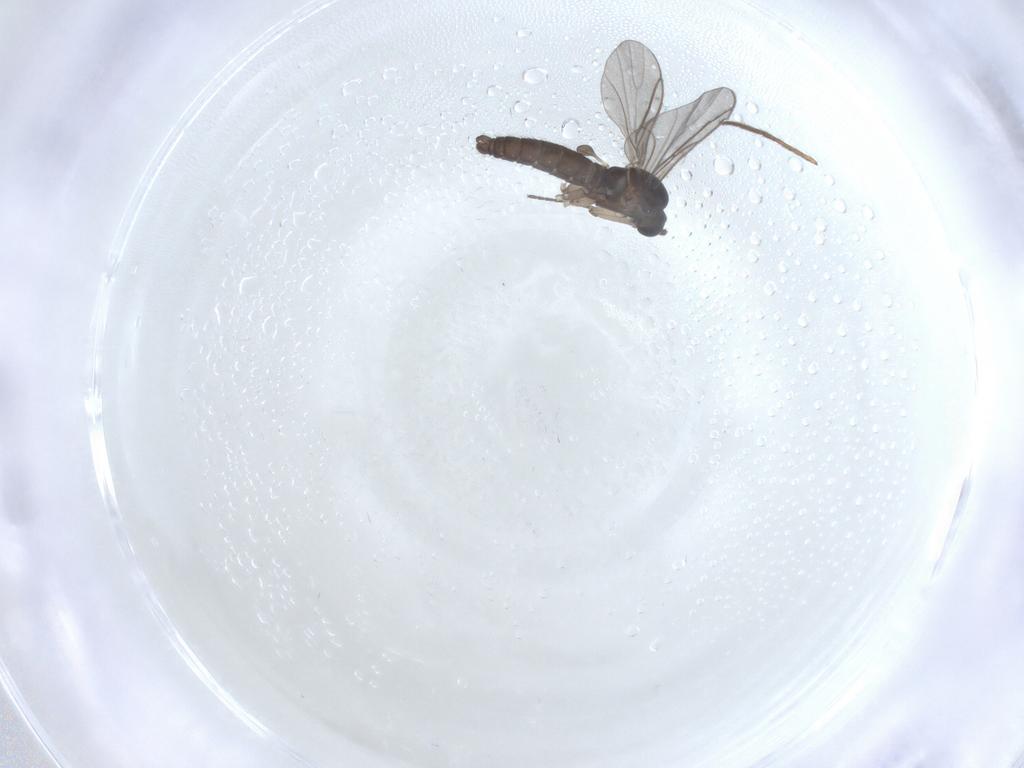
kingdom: Animalia
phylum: Arthropoda
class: Insecta
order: Diptera
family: Chironomidae
